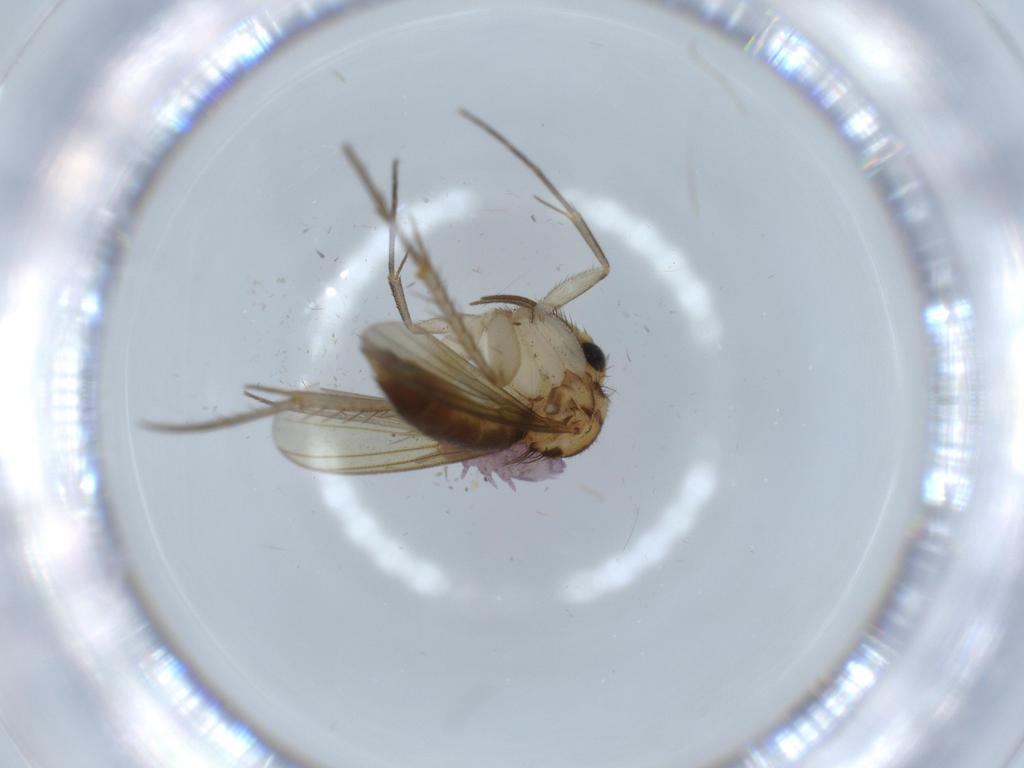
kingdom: Animalia
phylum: Arthropoda
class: Insecta
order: Diptera
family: Mycetophilidae
